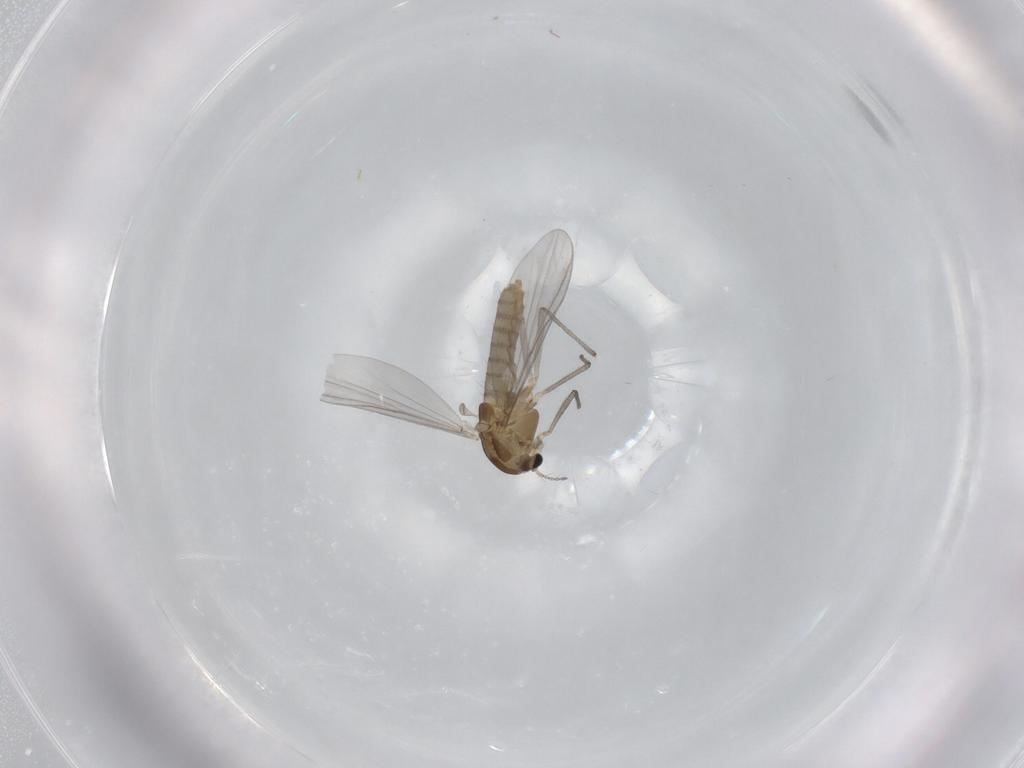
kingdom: Animalia
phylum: Arthropoda
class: Insecta
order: Diptera
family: Chironomidae
